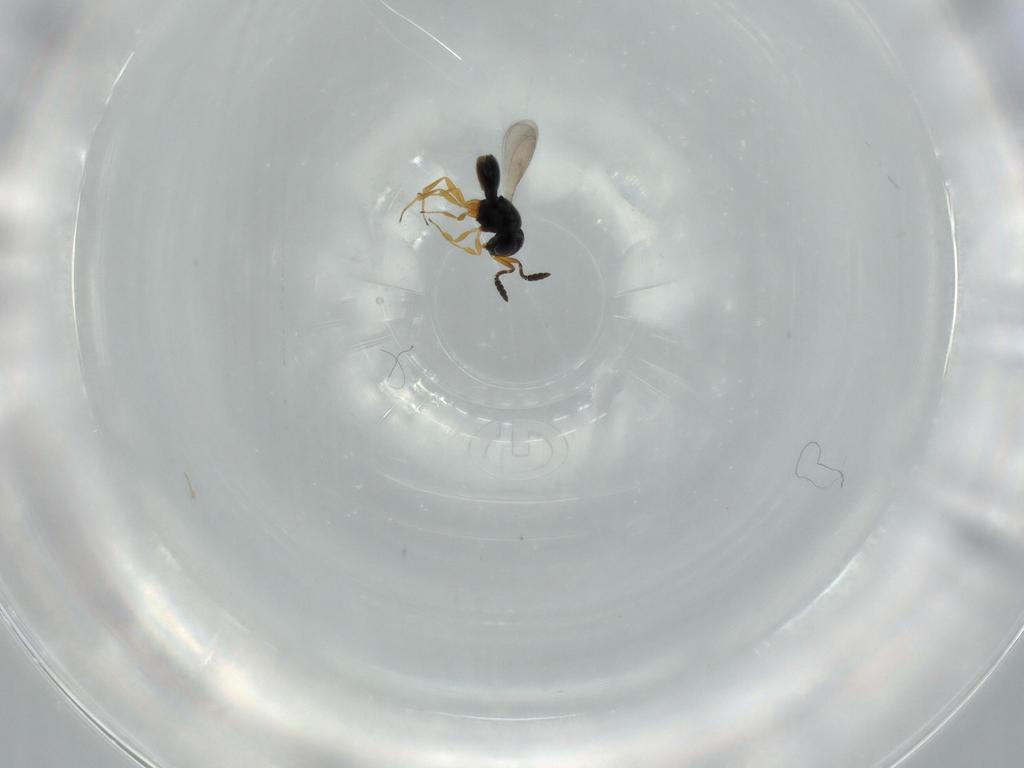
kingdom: Animalia
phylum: Arthropoda
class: Insecta
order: Hymenoptera
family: Scelionidae
